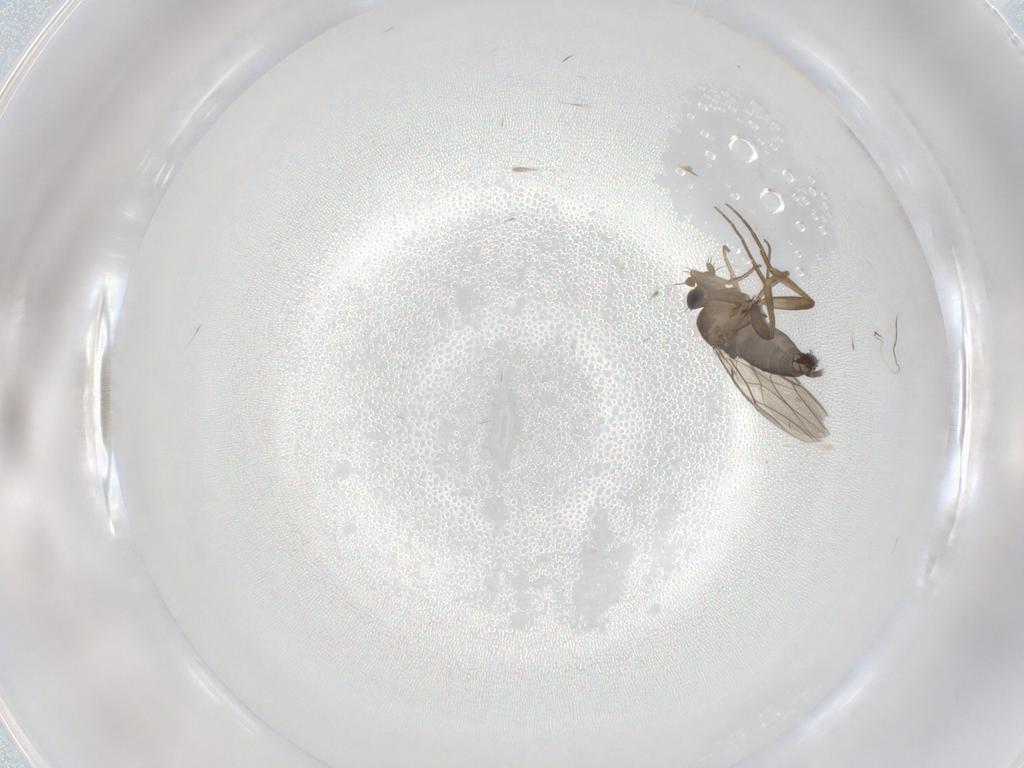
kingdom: Animalia
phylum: Arthropoda
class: Insecta
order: Diptera
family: Phoridae
